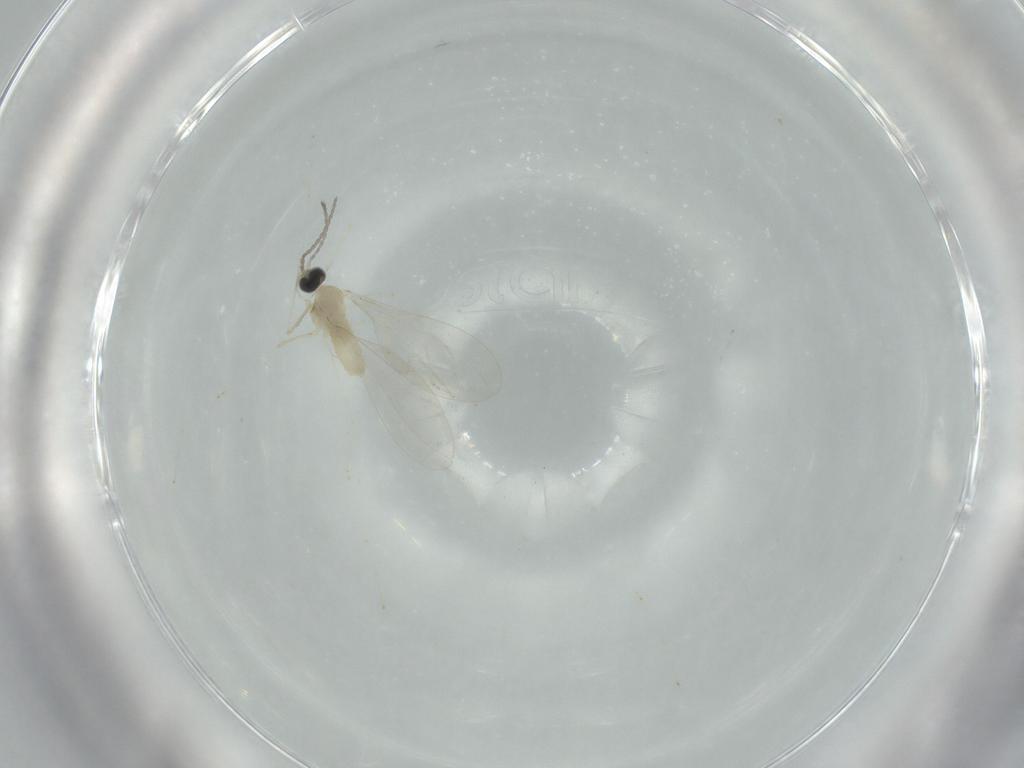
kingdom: Animalia
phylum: Arthropoda
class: Insecta
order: Diptera
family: Cecidomyiidae
